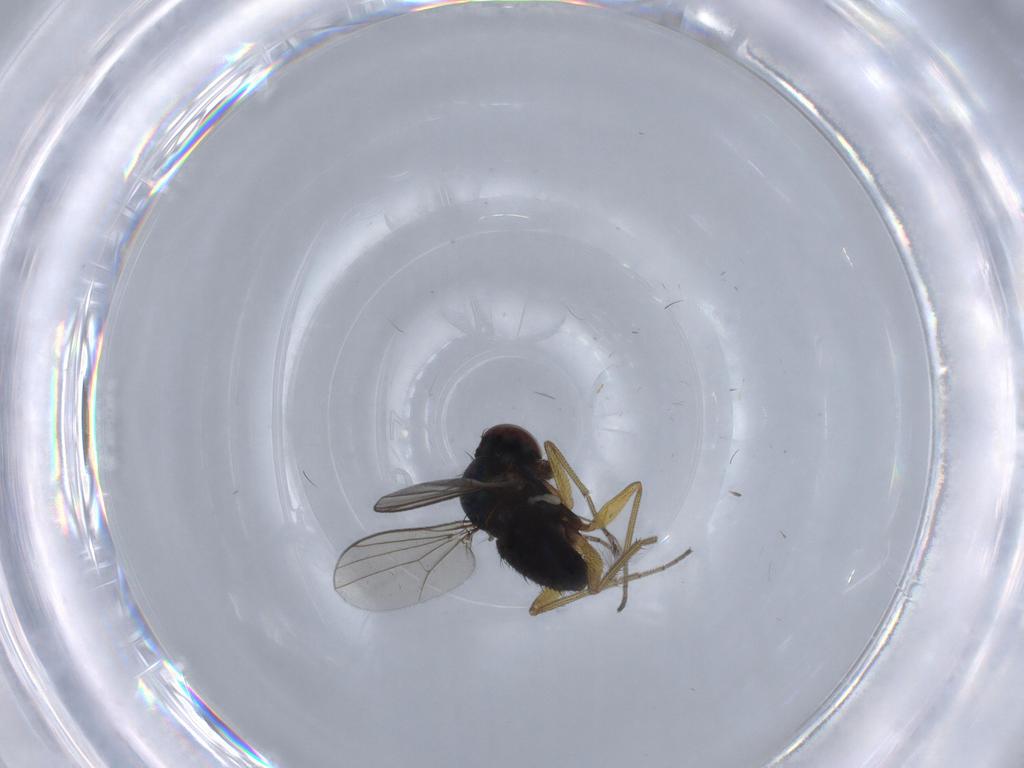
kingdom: Animalia
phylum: Arthropoda
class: Insecta
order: Diptera
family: Dolichopodidae
